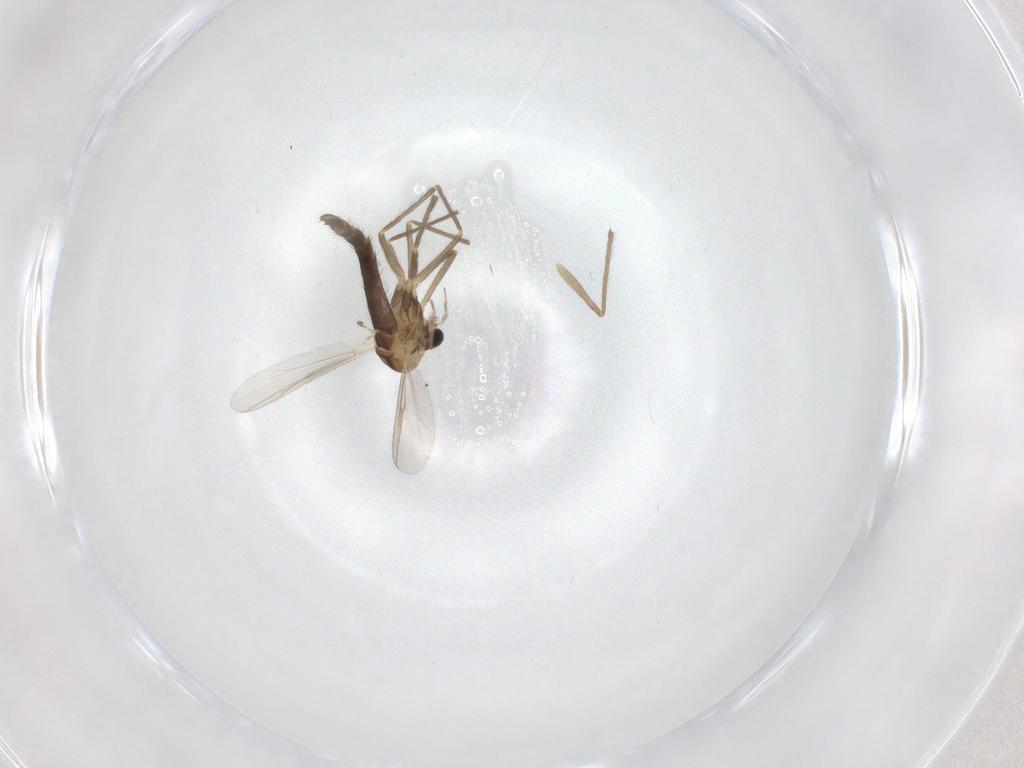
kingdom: Animalia
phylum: Arthropoda
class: Insecta
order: Diptera
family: Chironomidae
